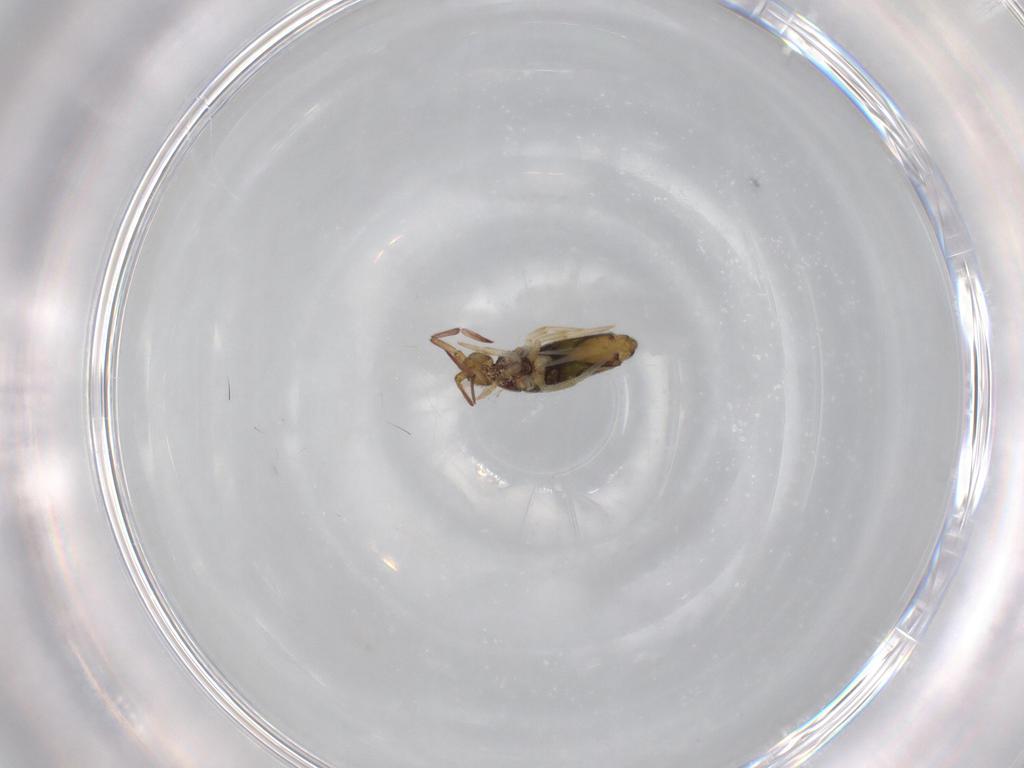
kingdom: Animalia
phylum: Arthropoda
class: Collembola
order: Entomobryomorpha
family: Entomobryidae
